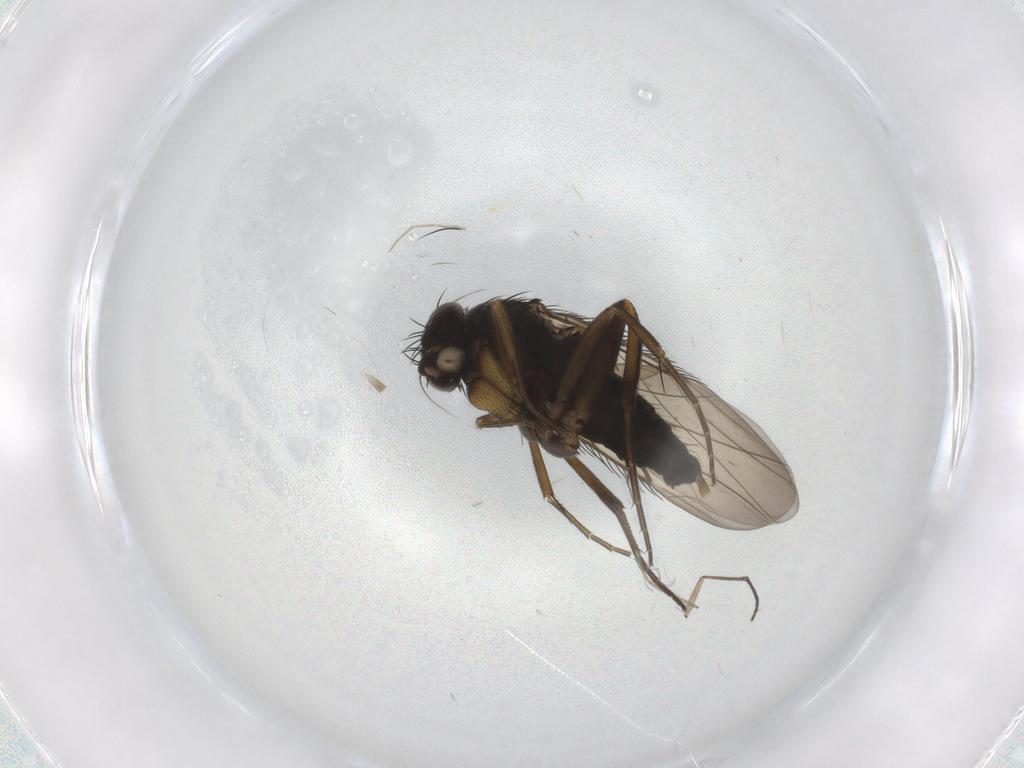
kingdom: Animalia
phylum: Arthropoda
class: Insecta
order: Diptera
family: Phoridae
